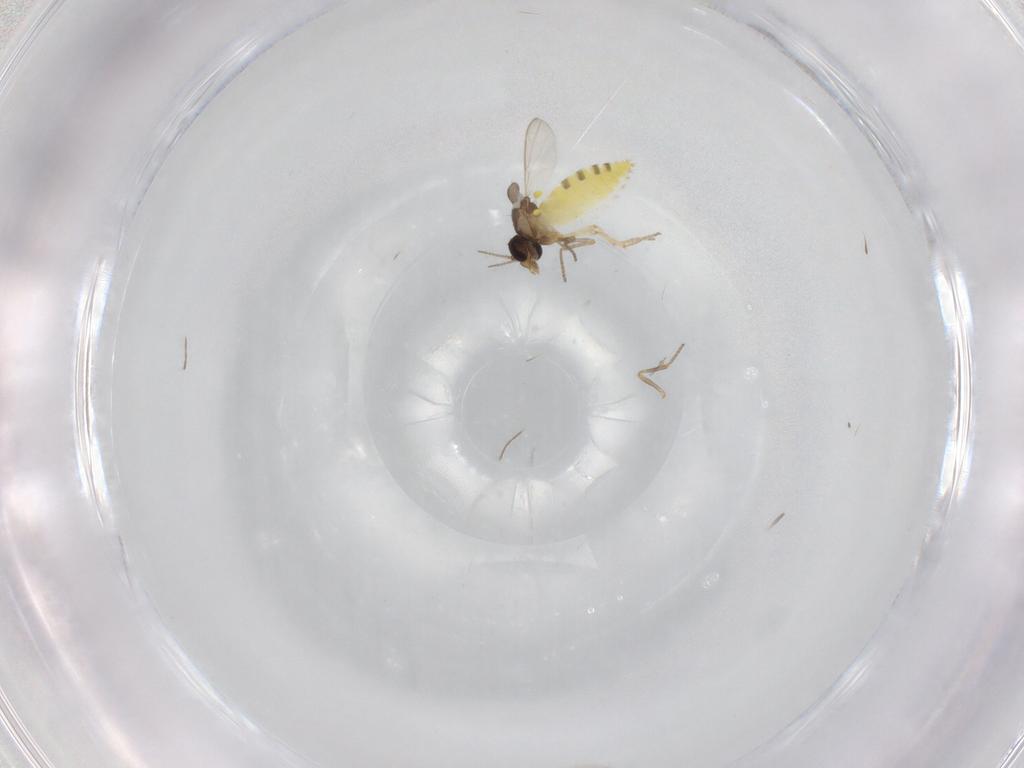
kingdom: Animalia
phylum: Arthropoda
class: Insecta
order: Diptera
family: Ceratopogonidae
